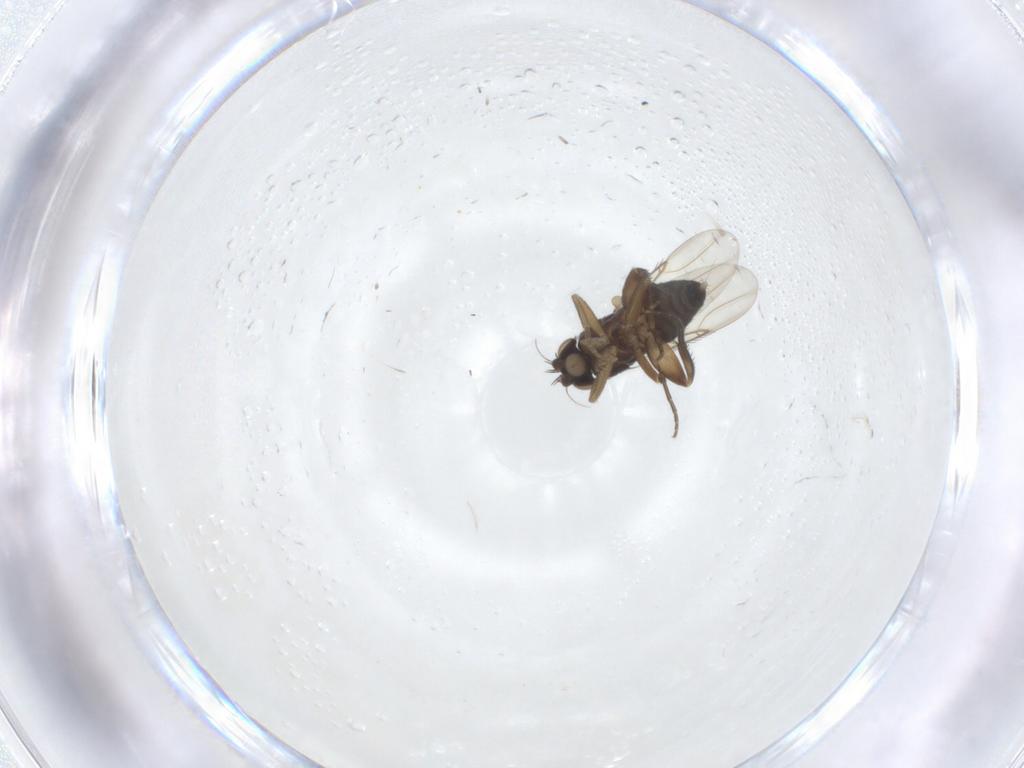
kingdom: Animalia
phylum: Arthropoda
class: Insecta
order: Diptera
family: Phoridae
